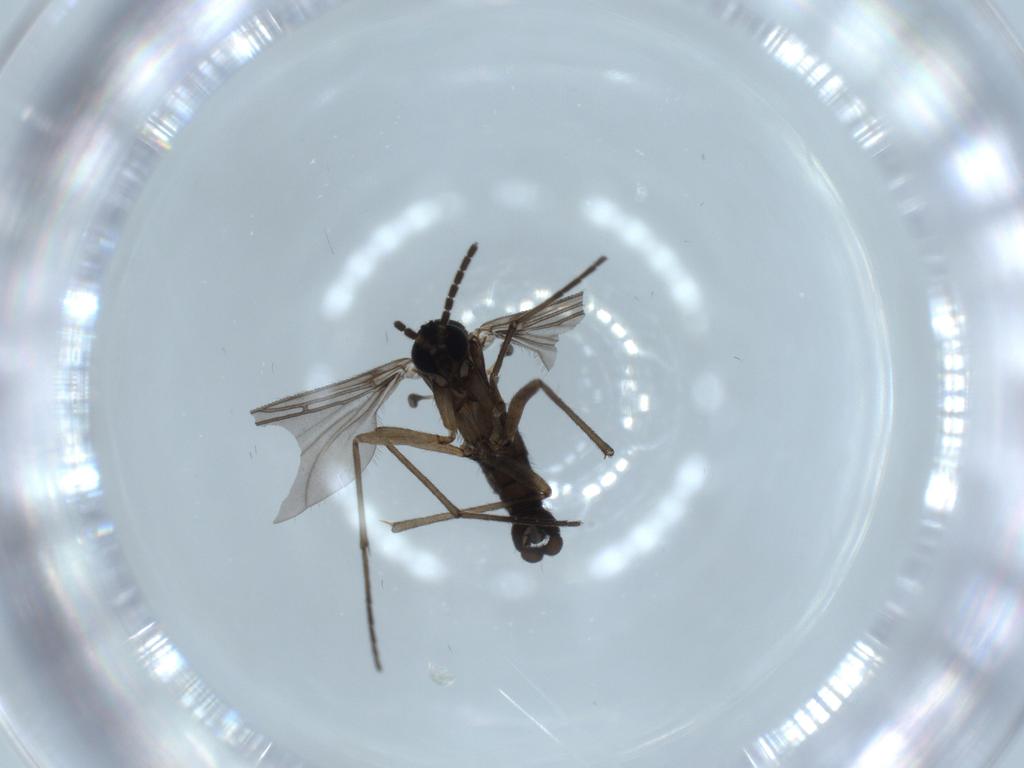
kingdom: Animalia
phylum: Arthropoda
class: Insecta
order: Diptera
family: Sciaridae
